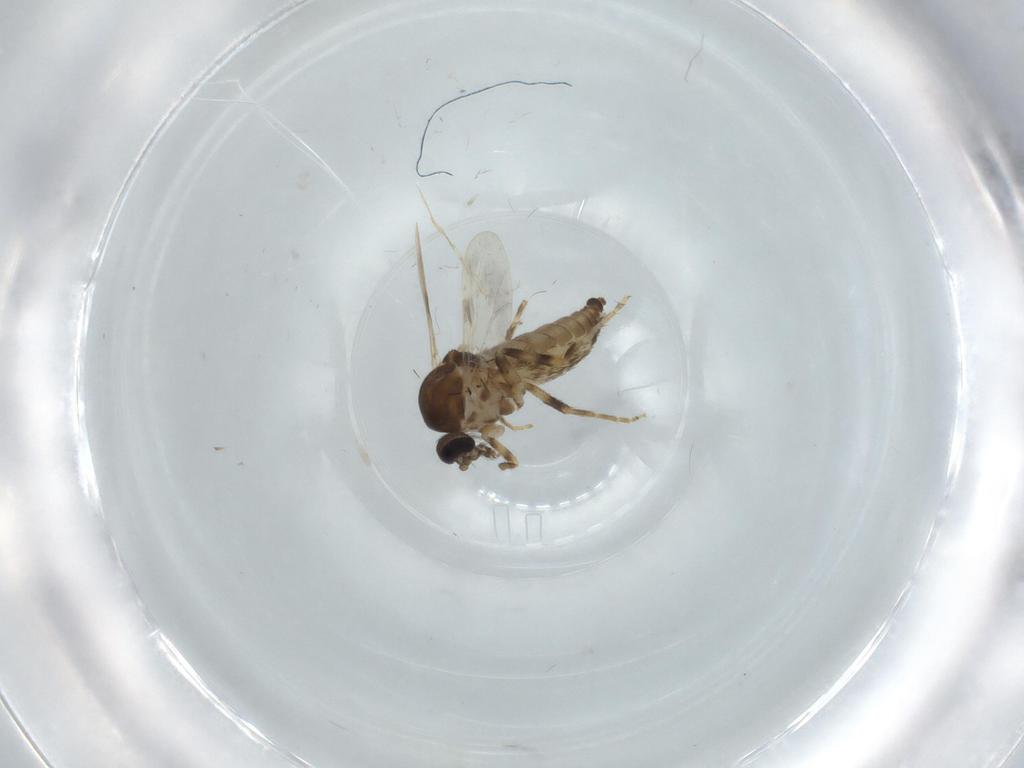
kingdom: Animalia
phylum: Arthropoda
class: Insecta
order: Diptera
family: Ceratopogonidae
